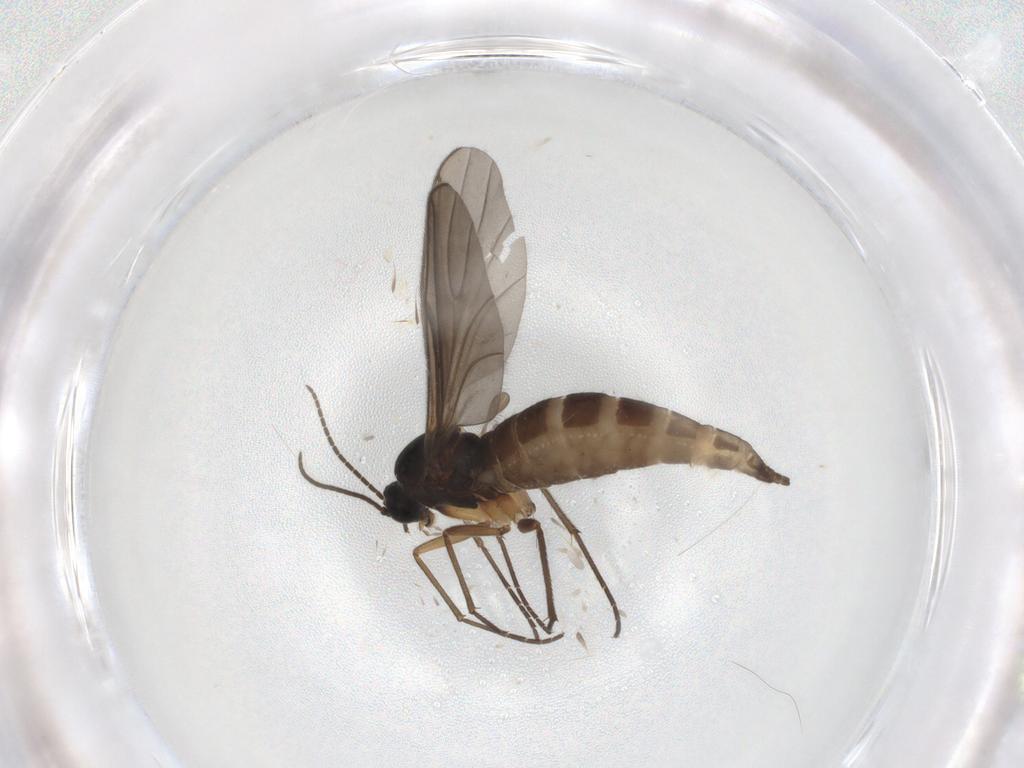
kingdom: Animalia
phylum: Arthropoda
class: Insecta
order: Diptera
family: Sciaridae
